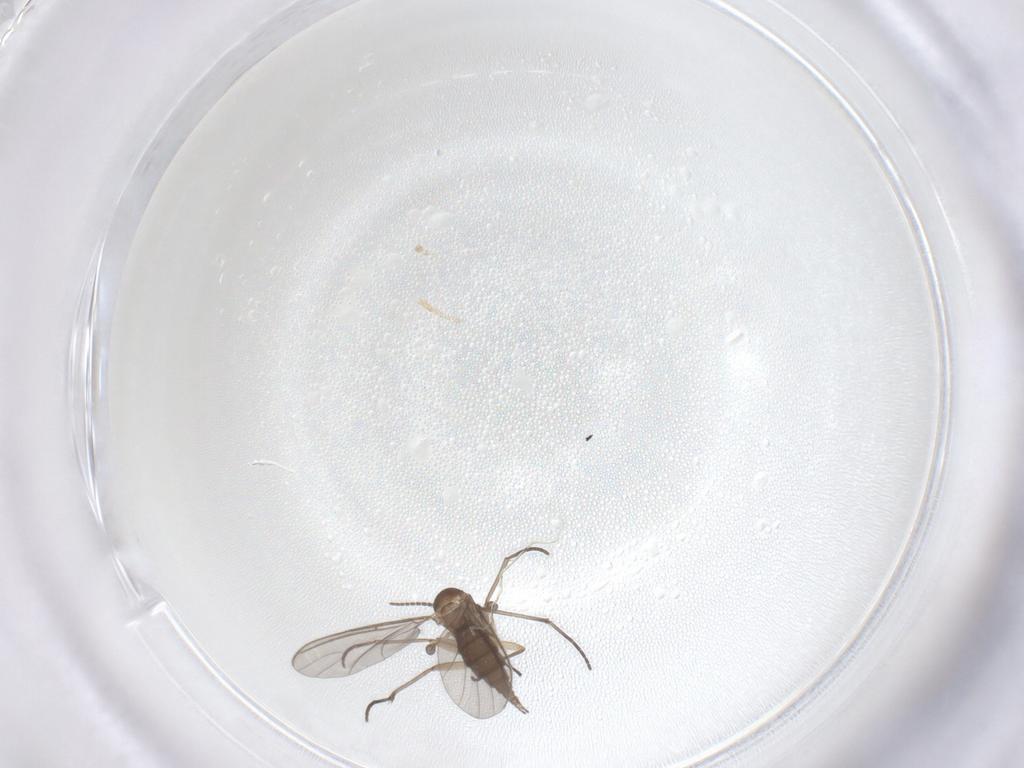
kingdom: Animalia
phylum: Arthropoda
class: Insecta
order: Diptera
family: Sciaridae
